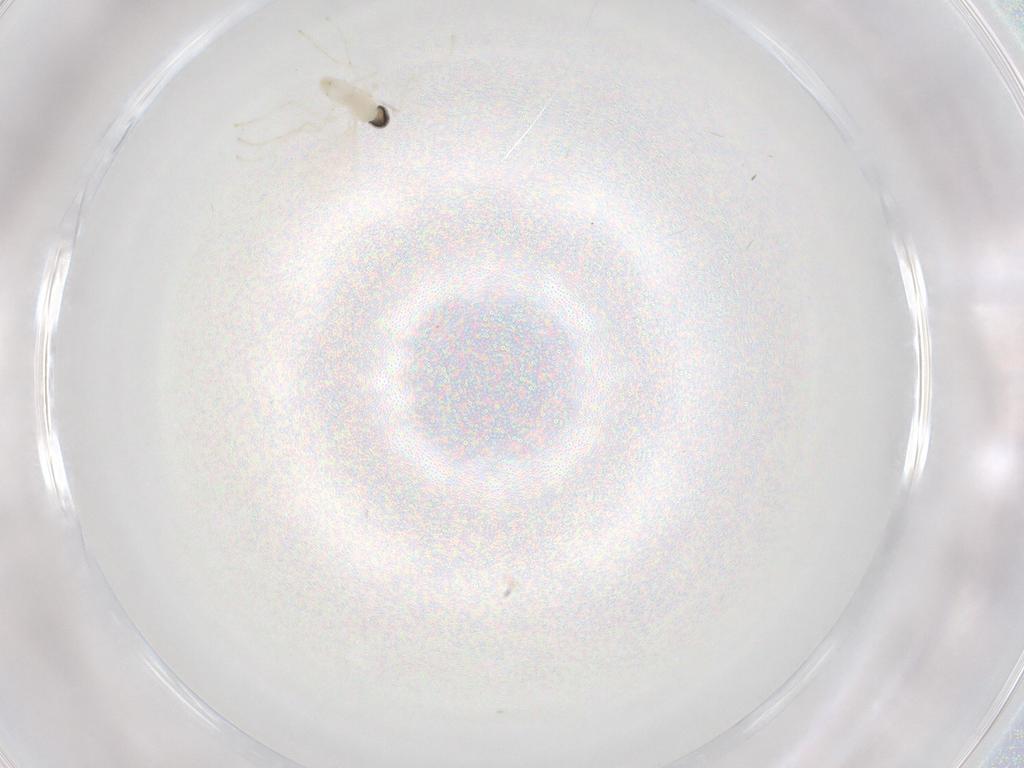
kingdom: Animalia
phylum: Arthropoda
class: Insecta
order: Diptera
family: Cecidomyiidae
